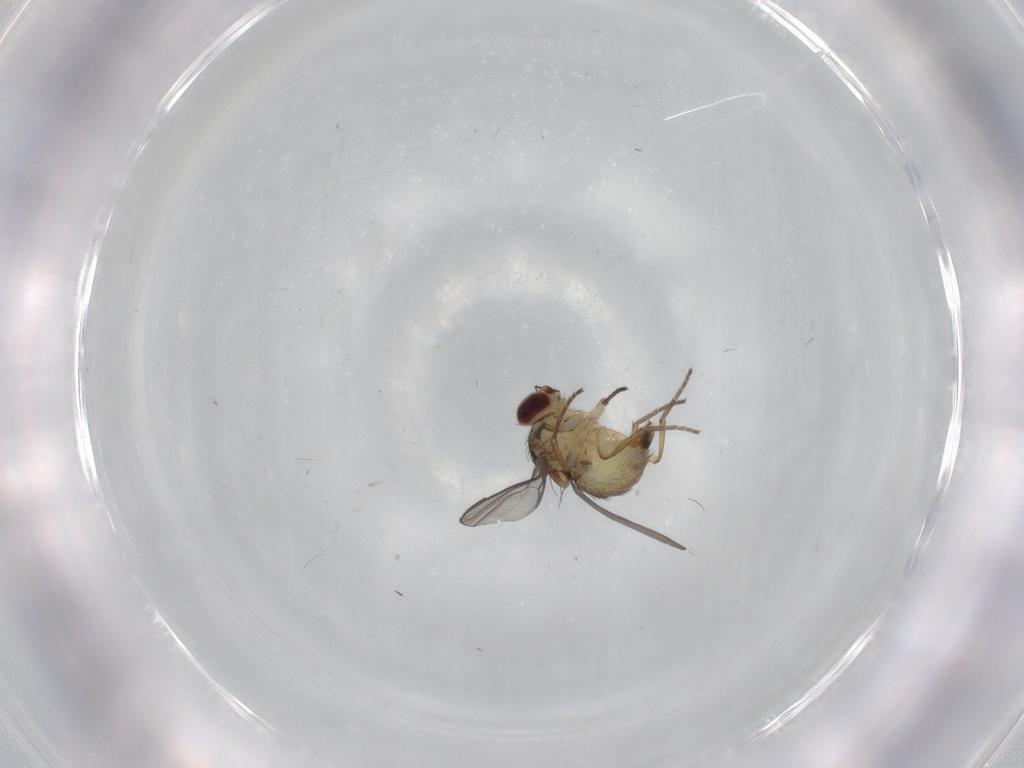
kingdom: Animalia
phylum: Arthropoda
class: Insecta
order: Diptera
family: Agromyzidae
